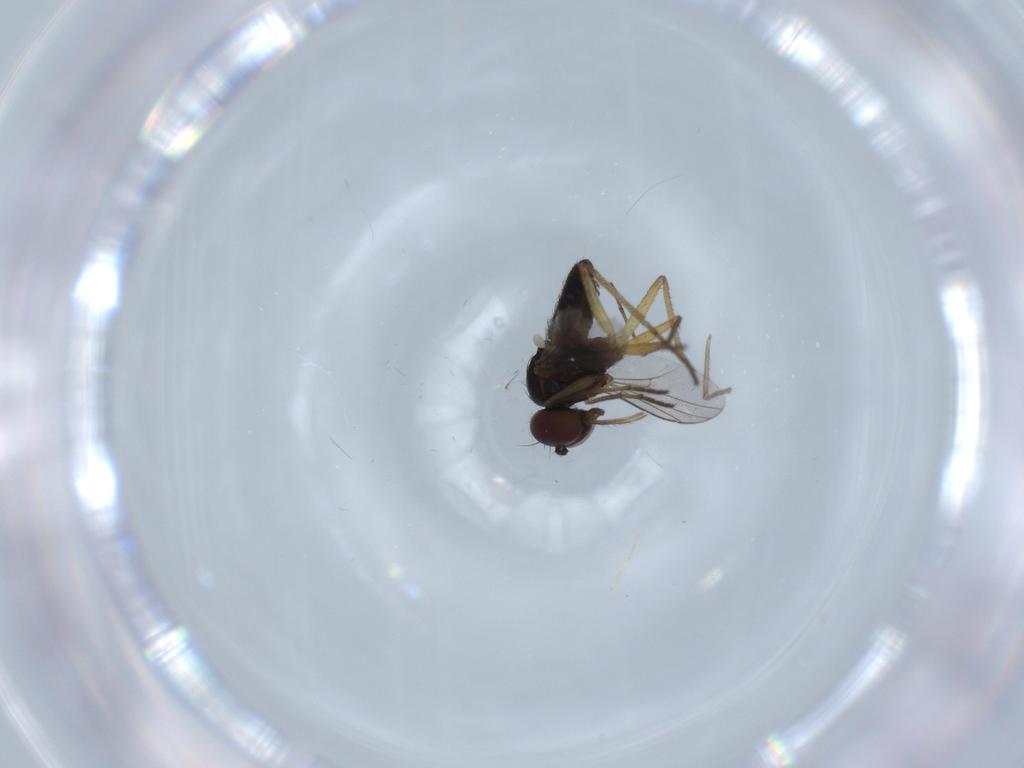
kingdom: Animalia
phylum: Arthropoda
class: Insecta
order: Diptera
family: Dolichopodidae
